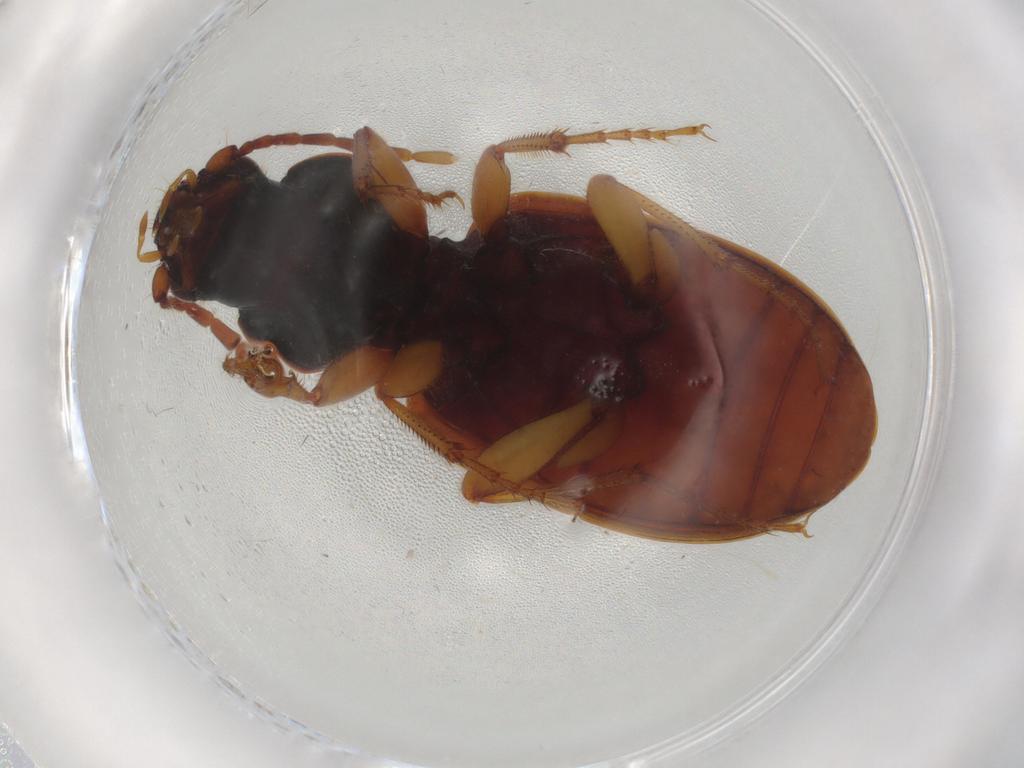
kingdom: Animalia
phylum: Arthropoda
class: Insecta
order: Coleoptera
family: Carabidae
